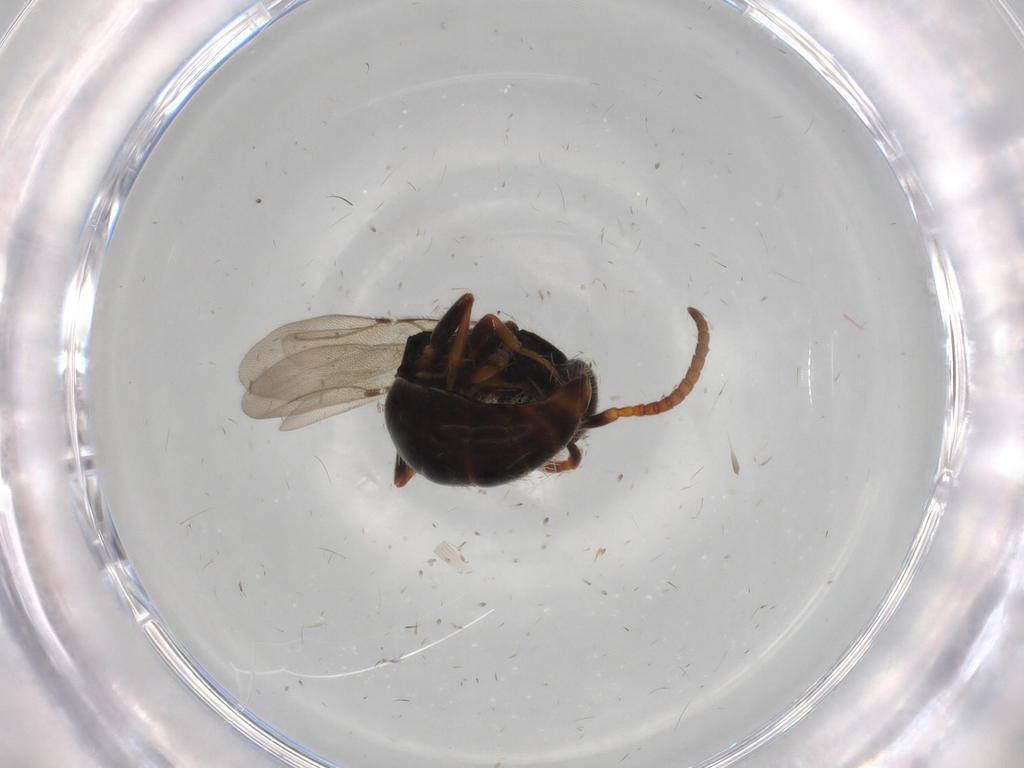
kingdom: Animalia
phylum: Arthropoda
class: Insecta
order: Hymenoptera
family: Bethylidae
